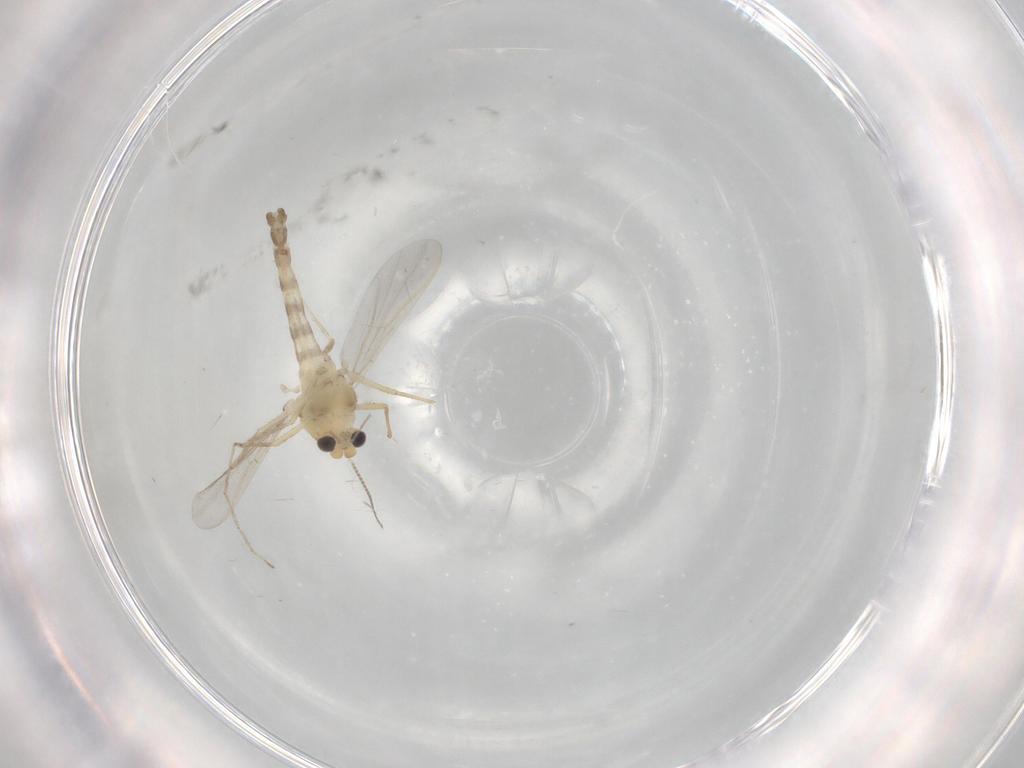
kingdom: Animalia
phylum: Arthropoda
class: Insecta
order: Diptera
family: Chironomidae
